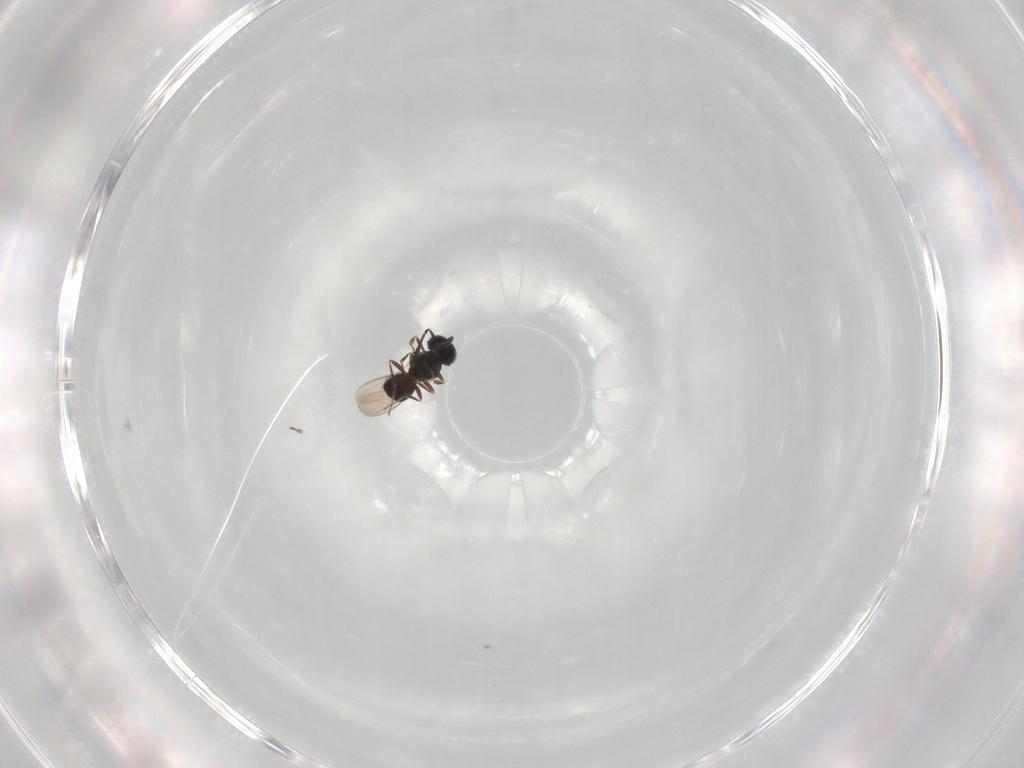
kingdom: Animalia
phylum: Arthropoda
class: Insecta
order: Hymenoptera
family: Scelionidae
